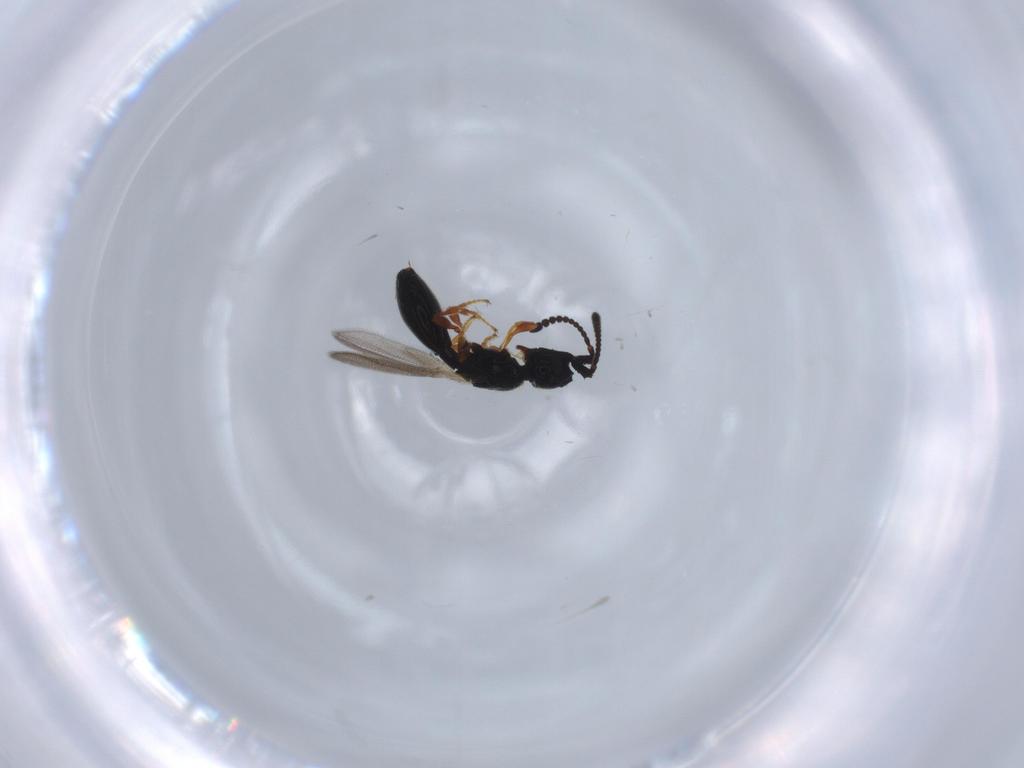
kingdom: Animalia
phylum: Arthropoda
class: Insecta
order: Hymenoptera
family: Diapriidae
